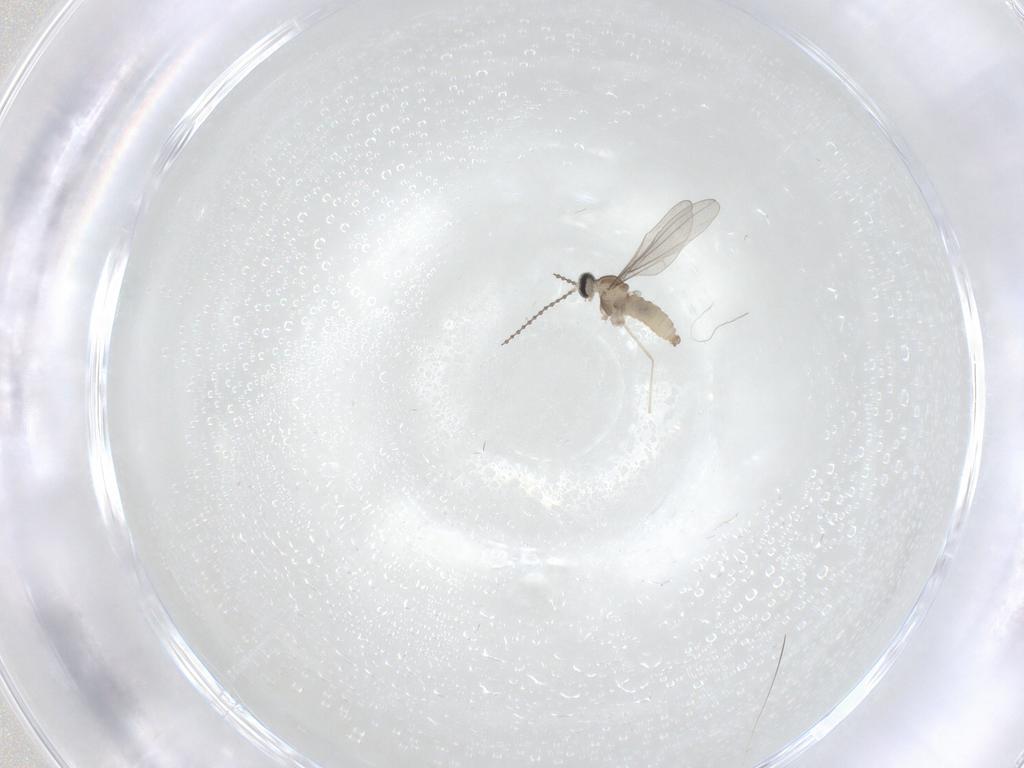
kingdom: Animalia
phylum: Arthropoda
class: Insecta
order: Diptera
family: Cecidomyiidae
